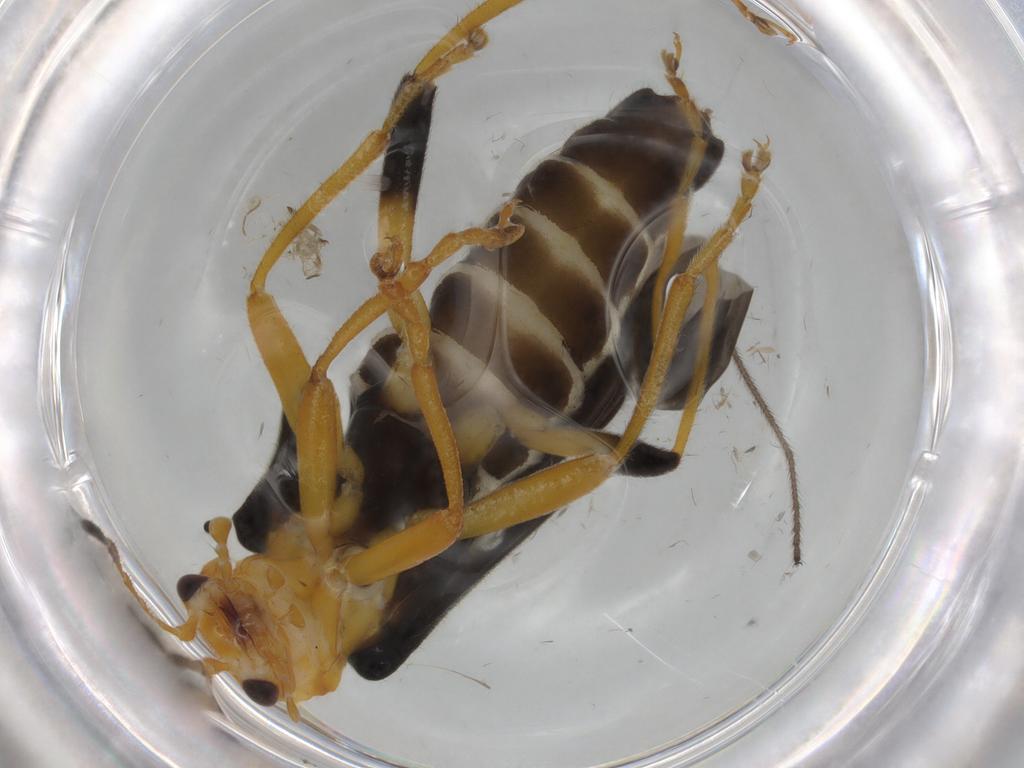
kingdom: Animalia
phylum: Arthropoda
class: Insecta
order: Coleoptera
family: Cantharidae
